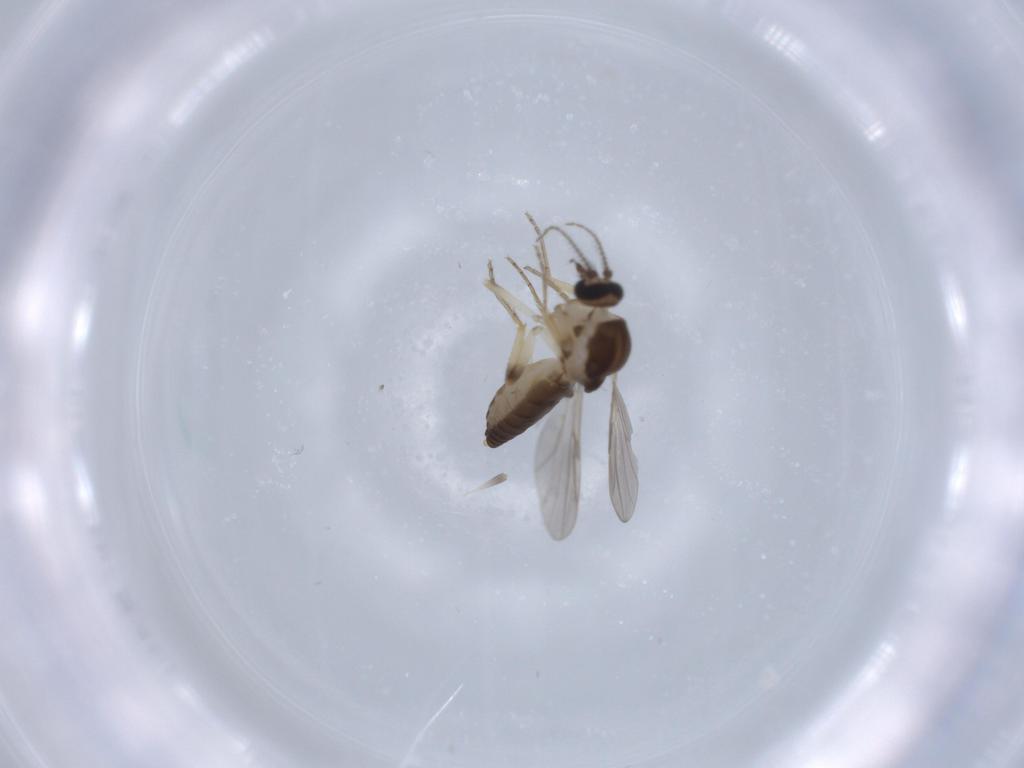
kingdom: Animalia
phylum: Arthropoda
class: Insecta
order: Diptera
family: Ceratopogonidae
